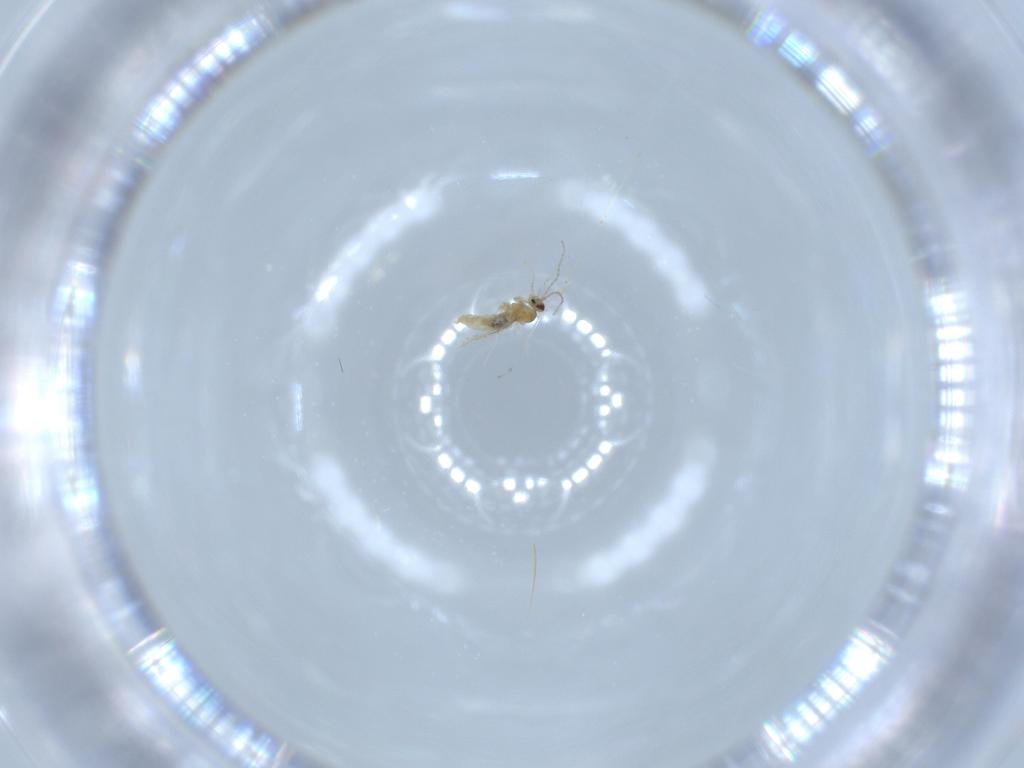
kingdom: Animalia
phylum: Arthropoda
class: Insecta
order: Diptera
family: Cecidomyiidae
